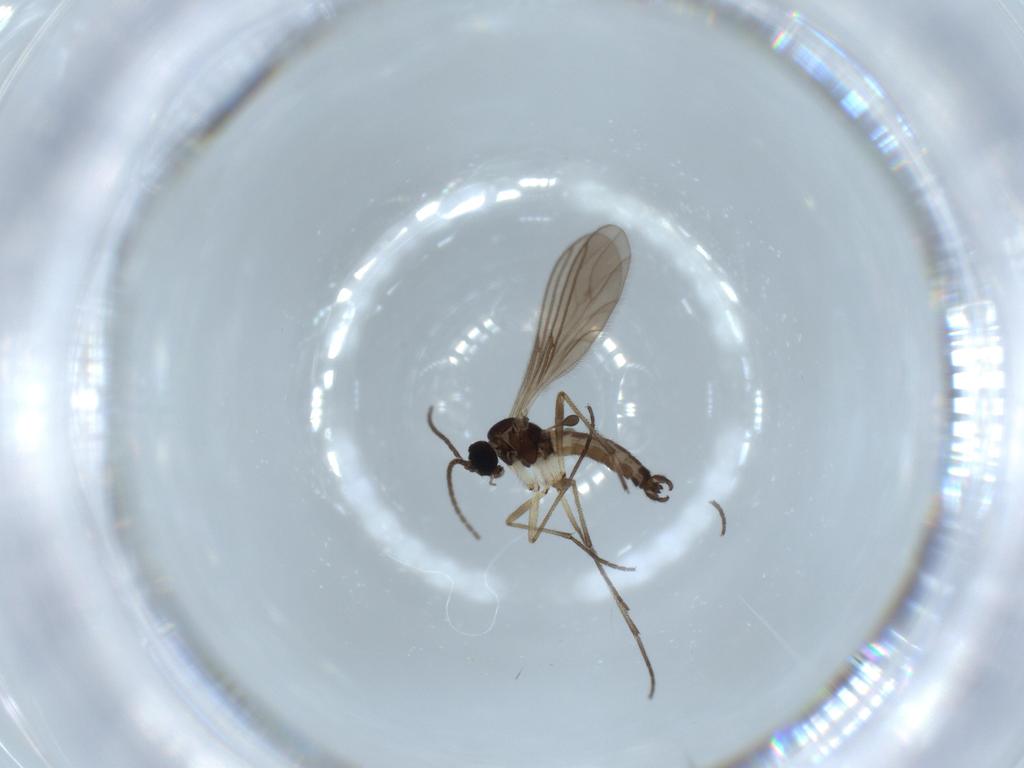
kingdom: Animalia
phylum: Arthropoda
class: Insecta
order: Diptera
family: Sciaridae
